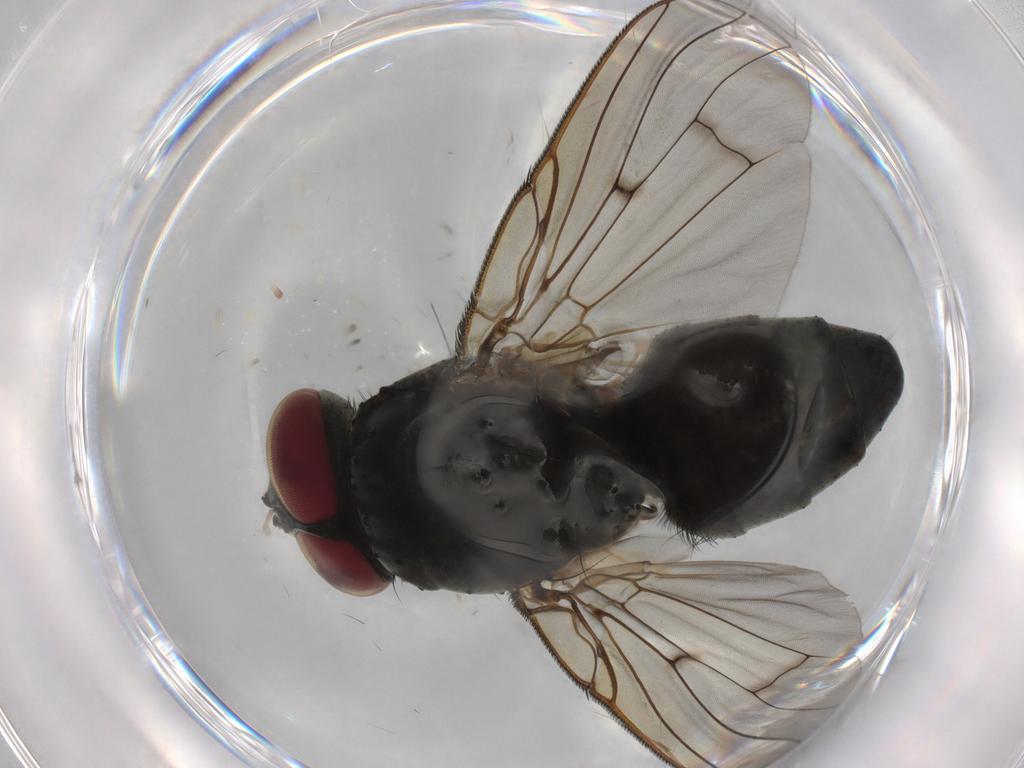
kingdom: Animalia
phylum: Arthropoda
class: Insecta
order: Diptera
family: Muscidae
